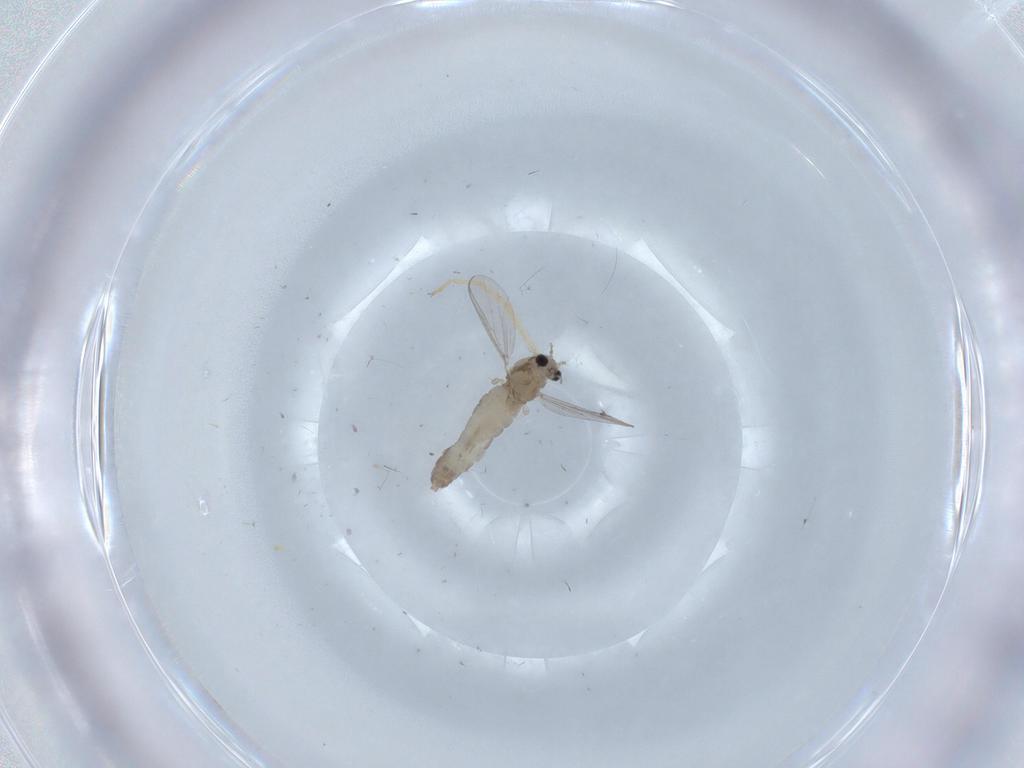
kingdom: Animalia
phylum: Arthropoda
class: Insecta
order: Diptera
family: Chironomidae
